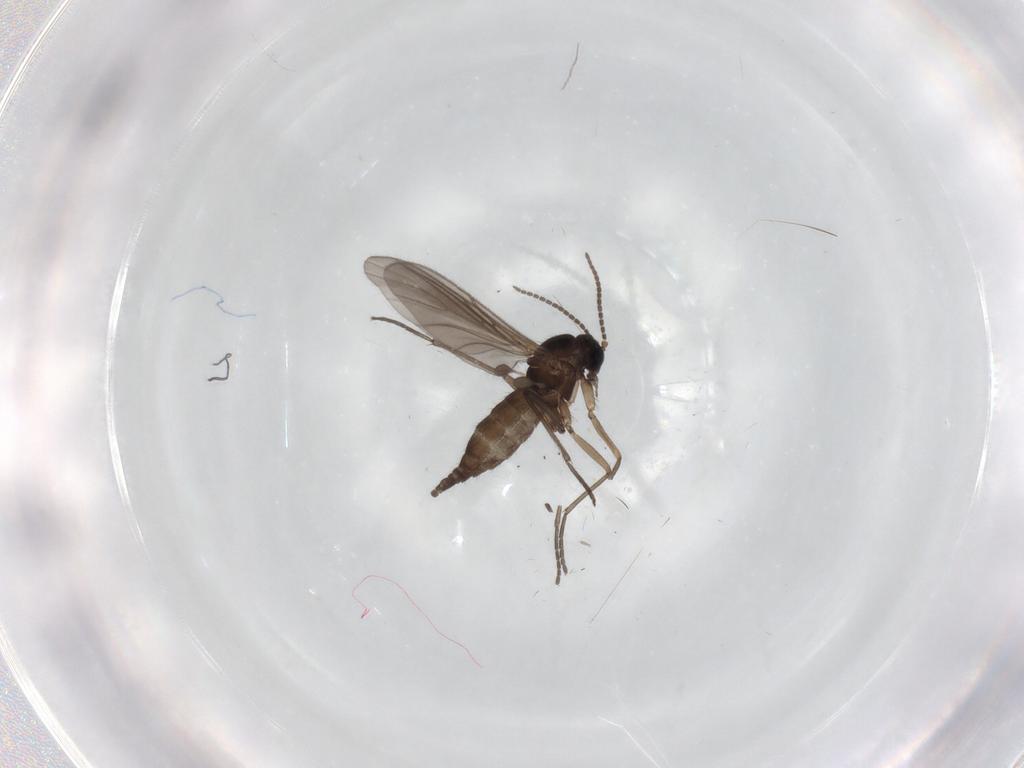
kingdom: Animalia
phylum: Arthropoda
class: Insecta
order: Diptera
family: Sciaridae
